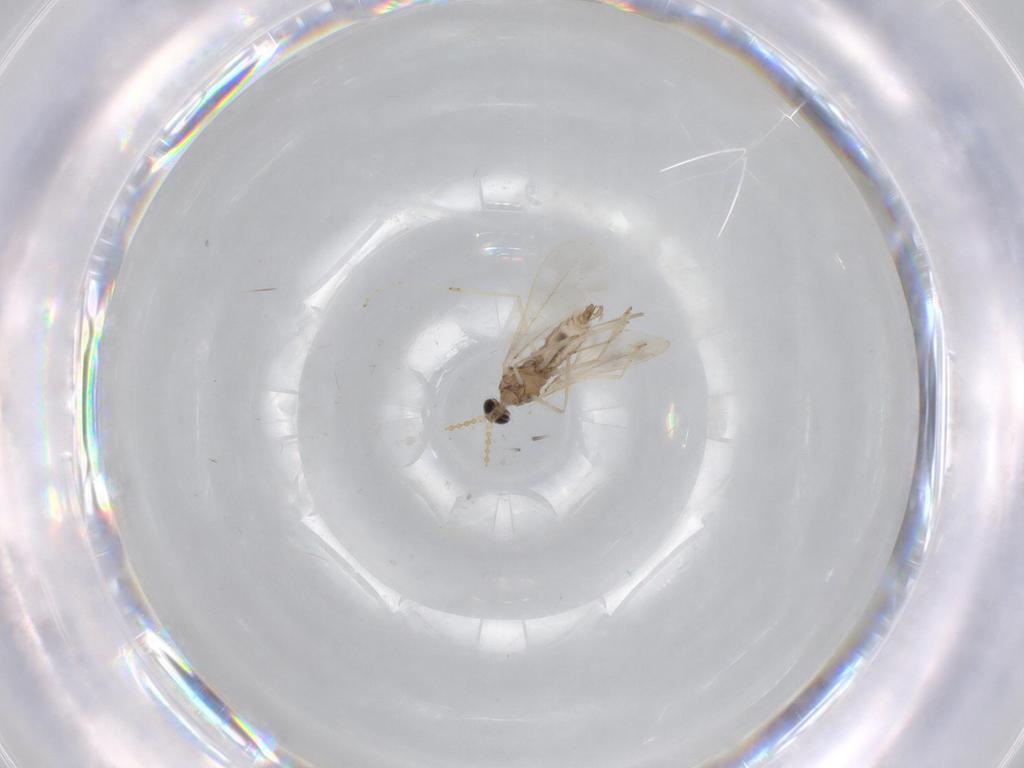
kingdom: Animalia
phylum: Arthropoda
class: Insecta
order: Diptera
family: Cecidomyiidae
